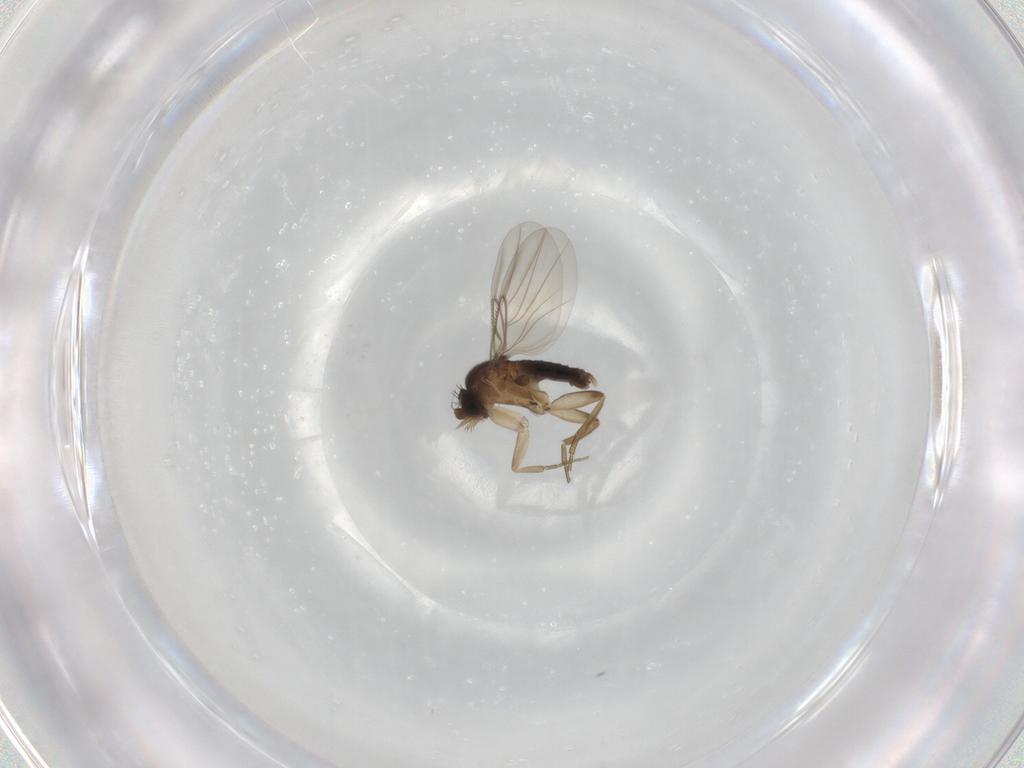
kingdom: Animalia
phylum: Arthropoda
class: Insecta
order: Diptera
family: Phoridae
